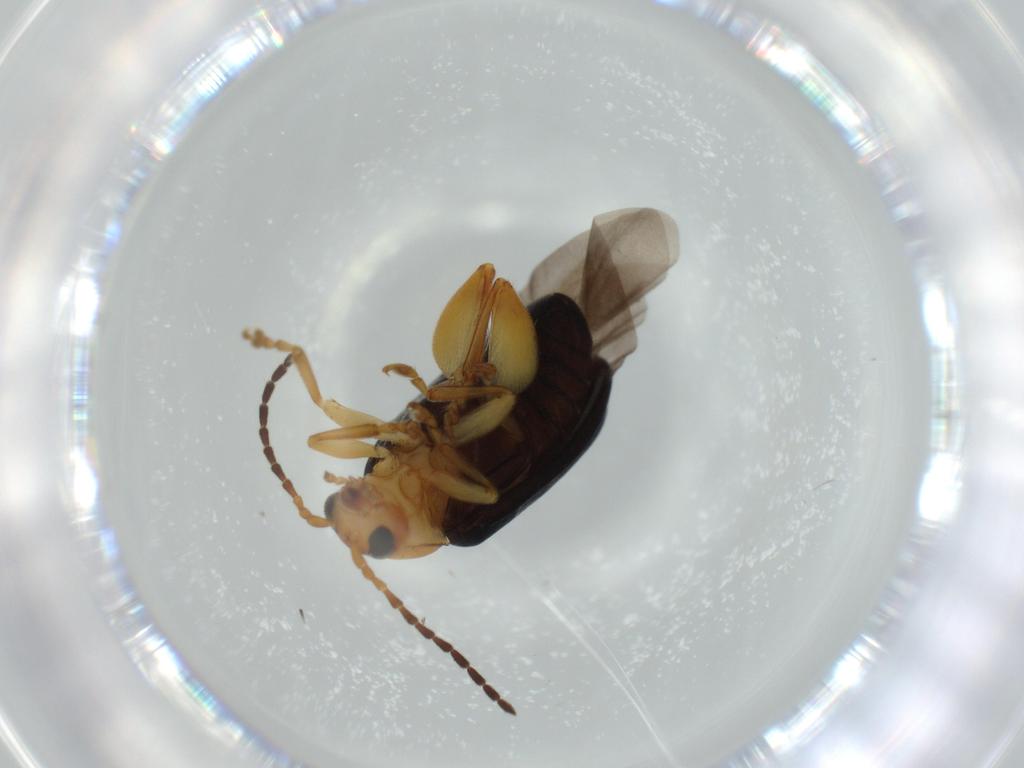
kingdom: Animalia
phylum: Arthropoda
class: Insecta
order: Coleoptera
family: Chrysomelidae
